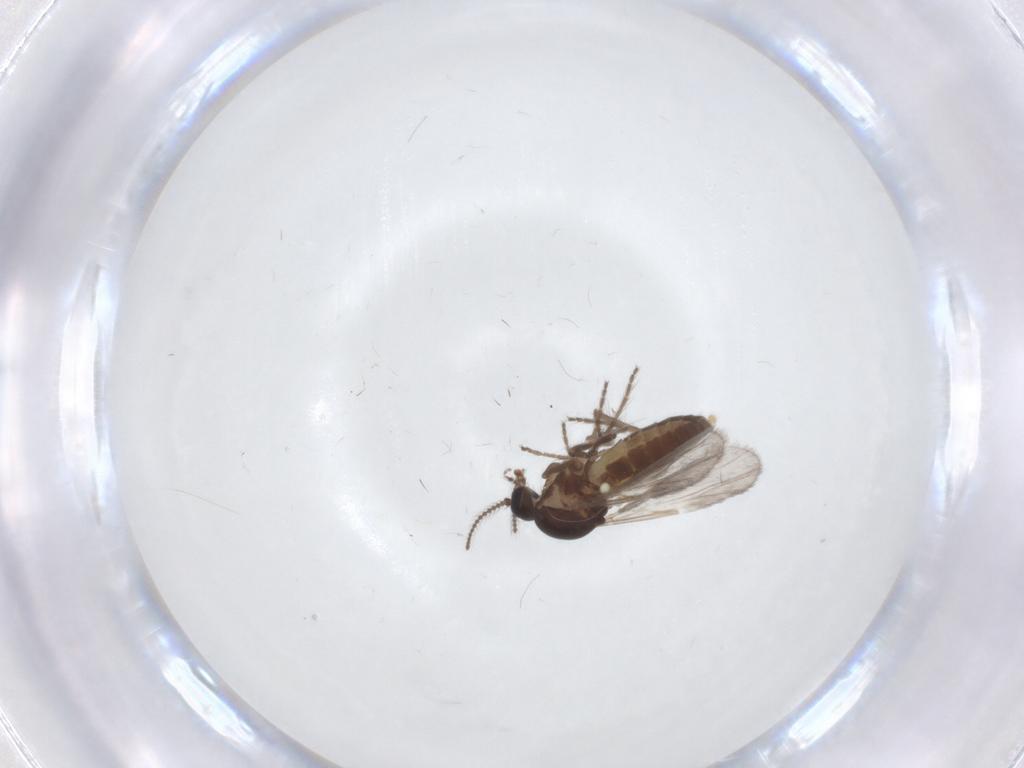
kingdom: Animalia
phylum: Arthropoda
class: Insecta
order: Diptera
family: Ceratopogonidae
